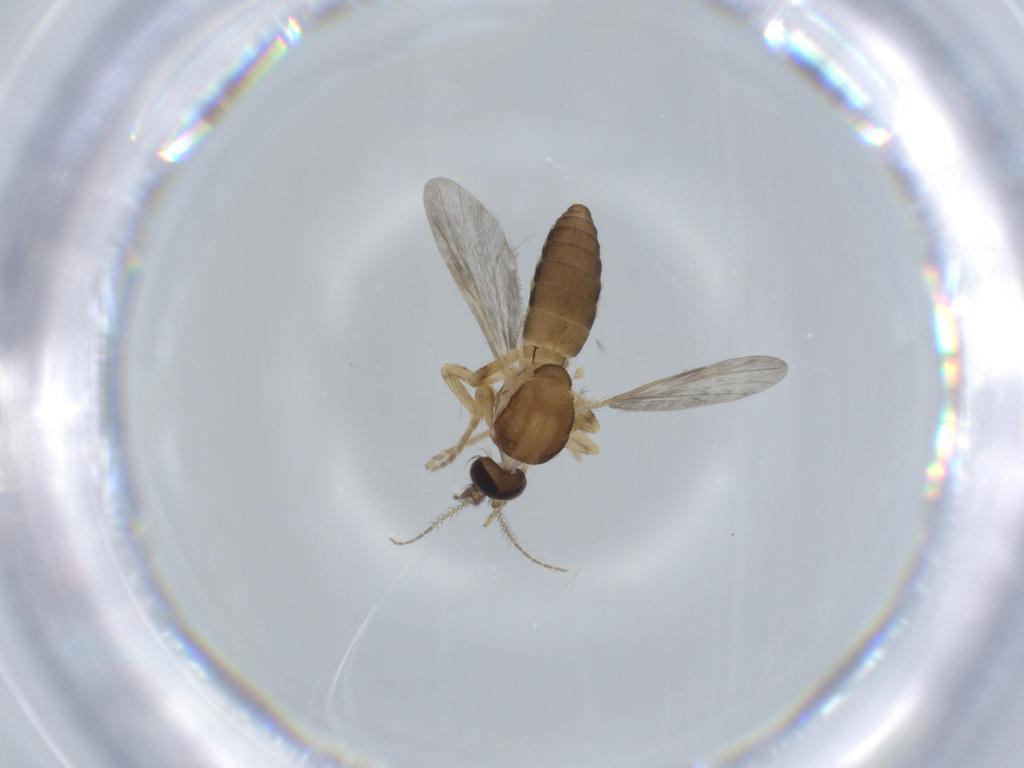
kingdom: Animalia
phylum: Arthropoda
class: Insecta
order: Diptera
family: Ceratopogonidae
